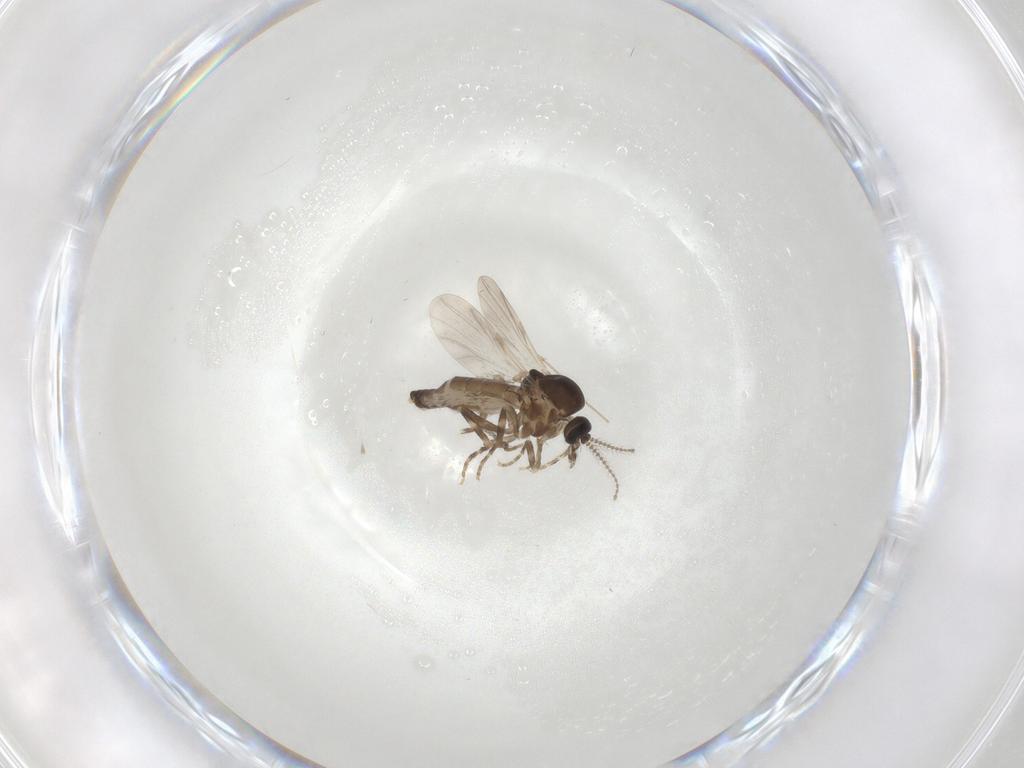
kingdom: Animalia
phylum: Arthropoda
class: Insecta
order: Diptera
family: Ceratopogonidae
